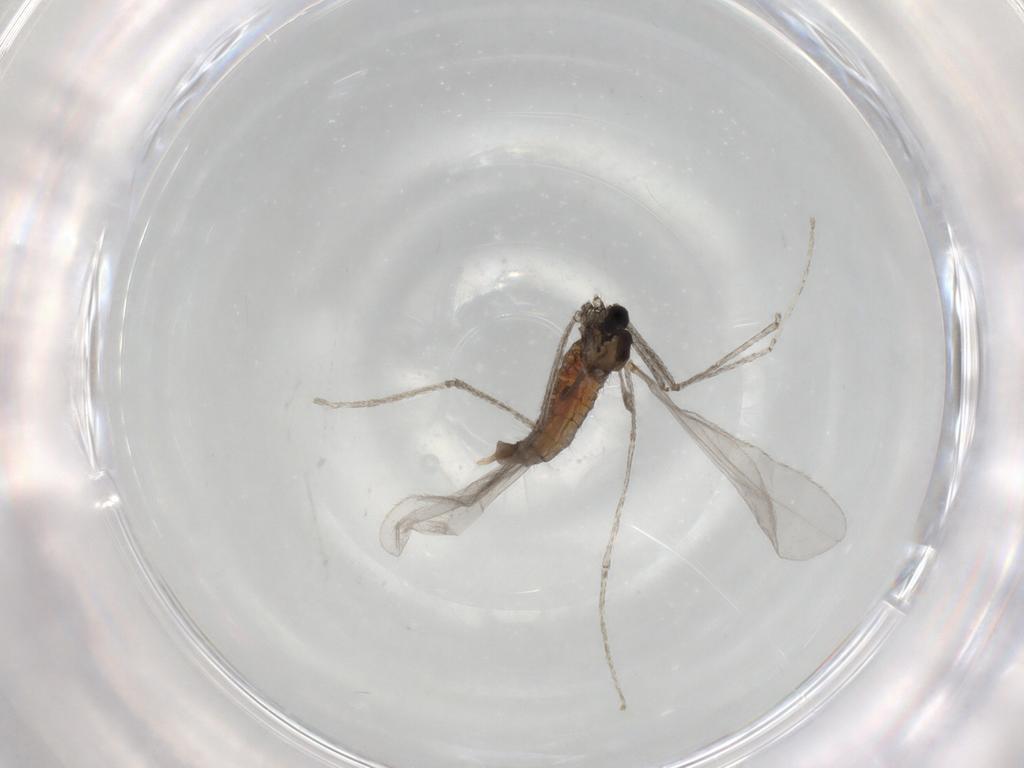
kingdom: Animalia
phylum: Arthropoda
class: Insecta
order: Diptera
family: Cecidomyiidae
